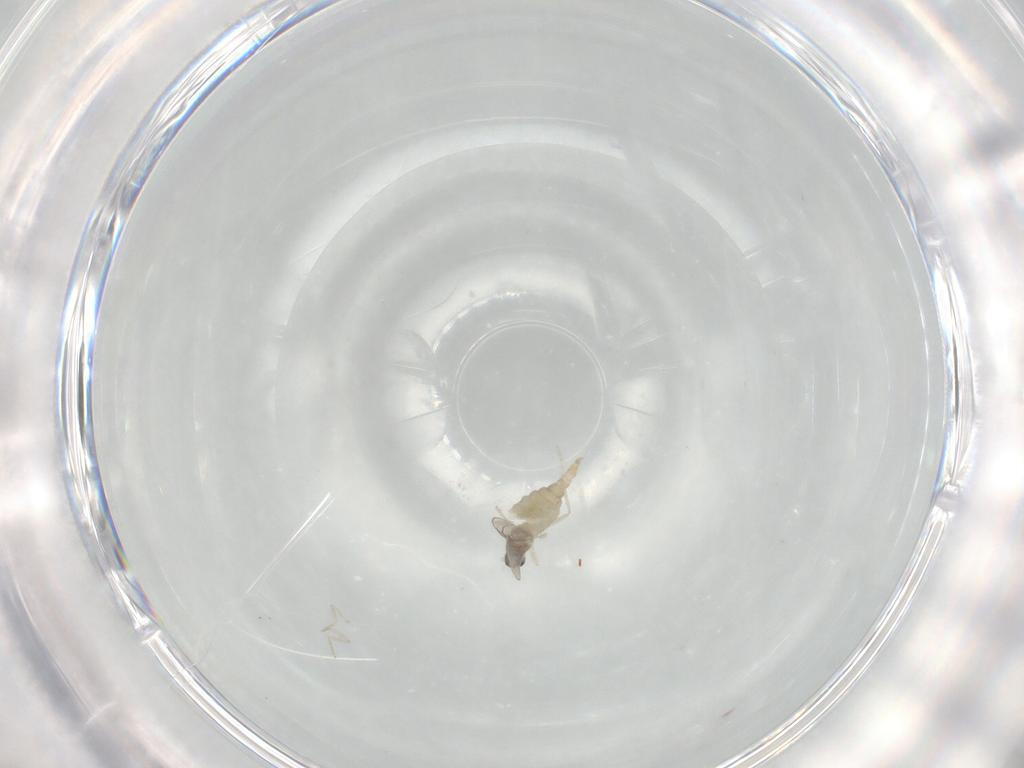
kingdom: Animalia
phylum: Arthropoda
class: Insecta
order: Diptera
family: Cecidomyiidae
